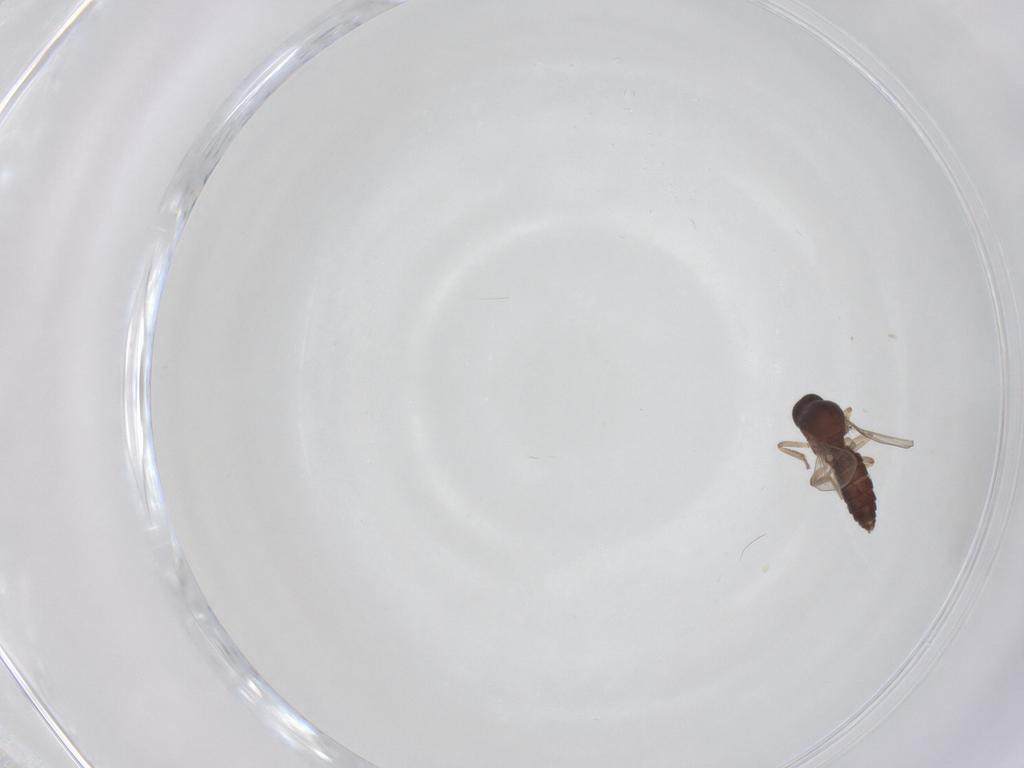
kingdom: Animalia
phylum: Arthropoda
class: Insecta
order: Diptera
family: Ceratopogonidae
